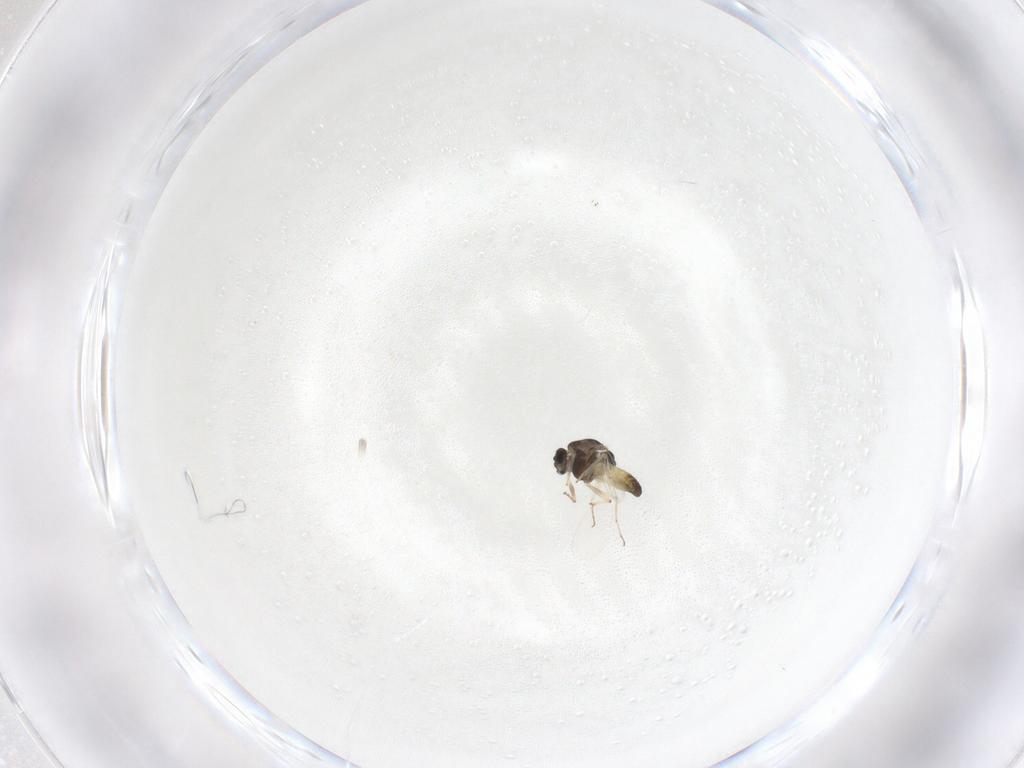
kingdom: Animalia
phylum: Arthropoda
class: Insecta
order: Diptera
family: Chironomidae
